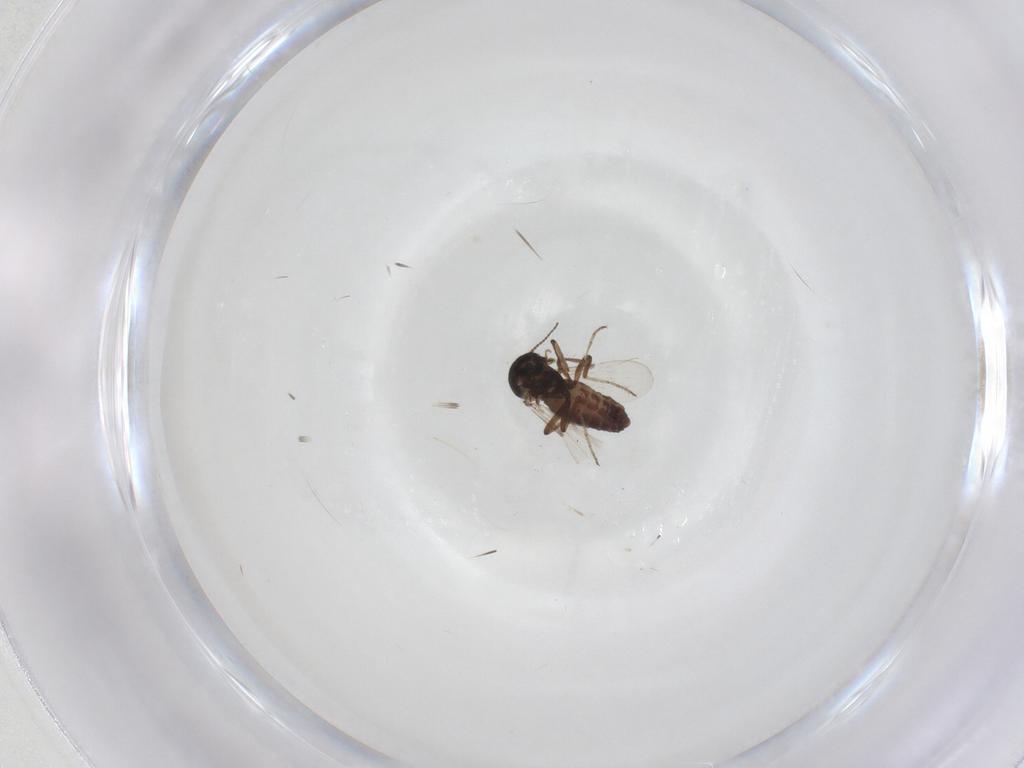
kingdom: Animalia
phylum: Arthropoda
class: Insecta
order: Diptera
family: Ceratopogonidae
